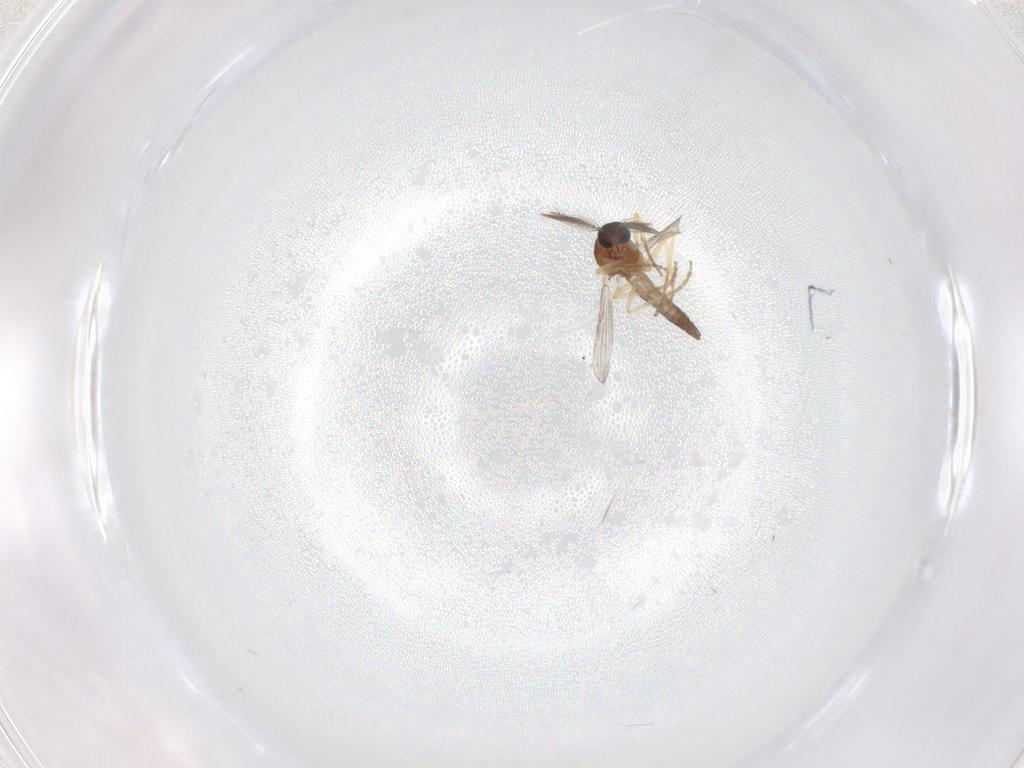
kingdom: Animalia
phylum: Arthropoda
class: Insecta
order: Diptera
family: Ceratopogonidae
